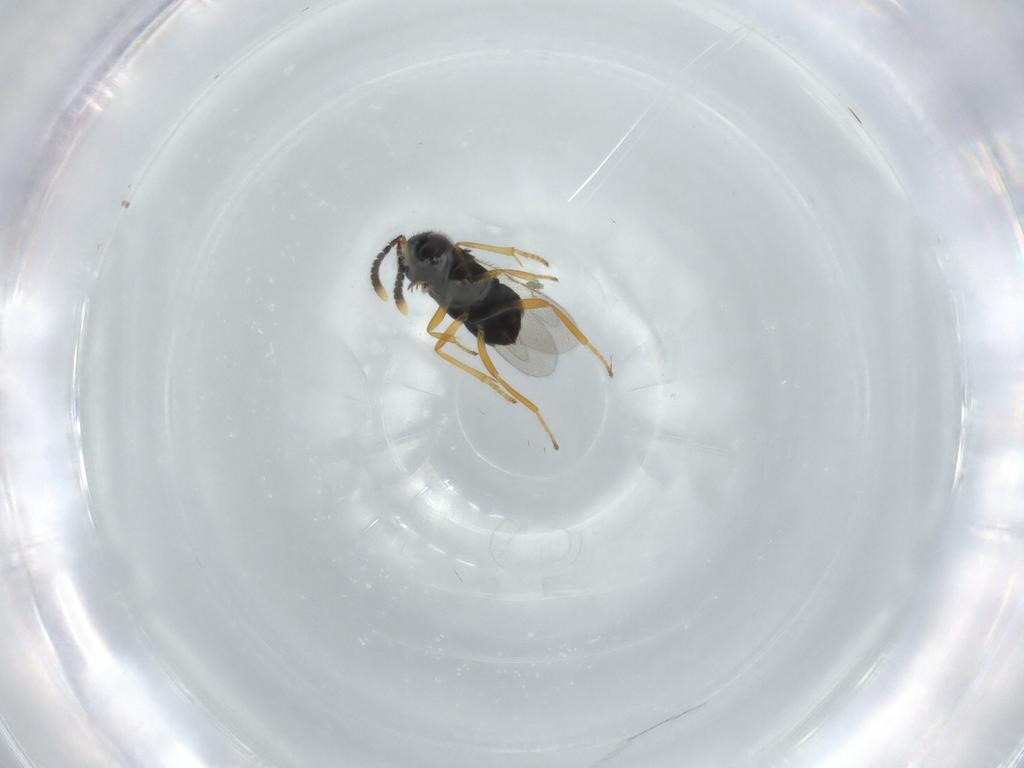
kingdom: Animalia
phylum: Arthropoda
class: Insecta
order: Hymenoptera
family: Encyrtidae
